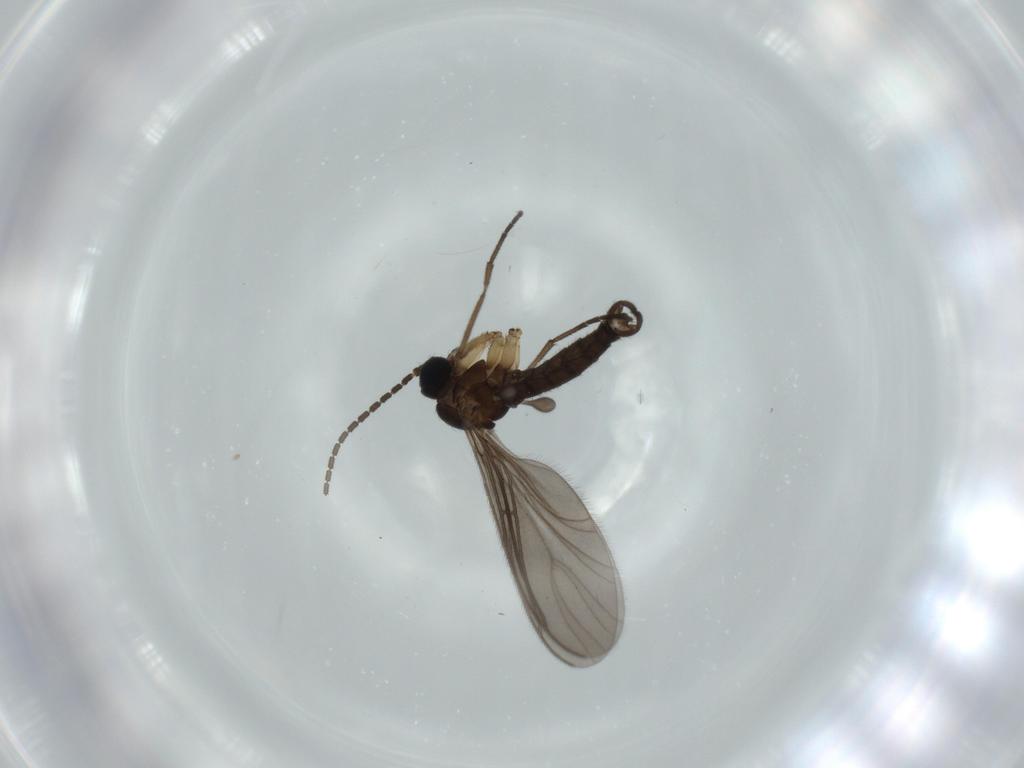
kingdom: Animalia
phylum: Arthropoda
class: Insecta
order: Diptera
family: Sciaridae
